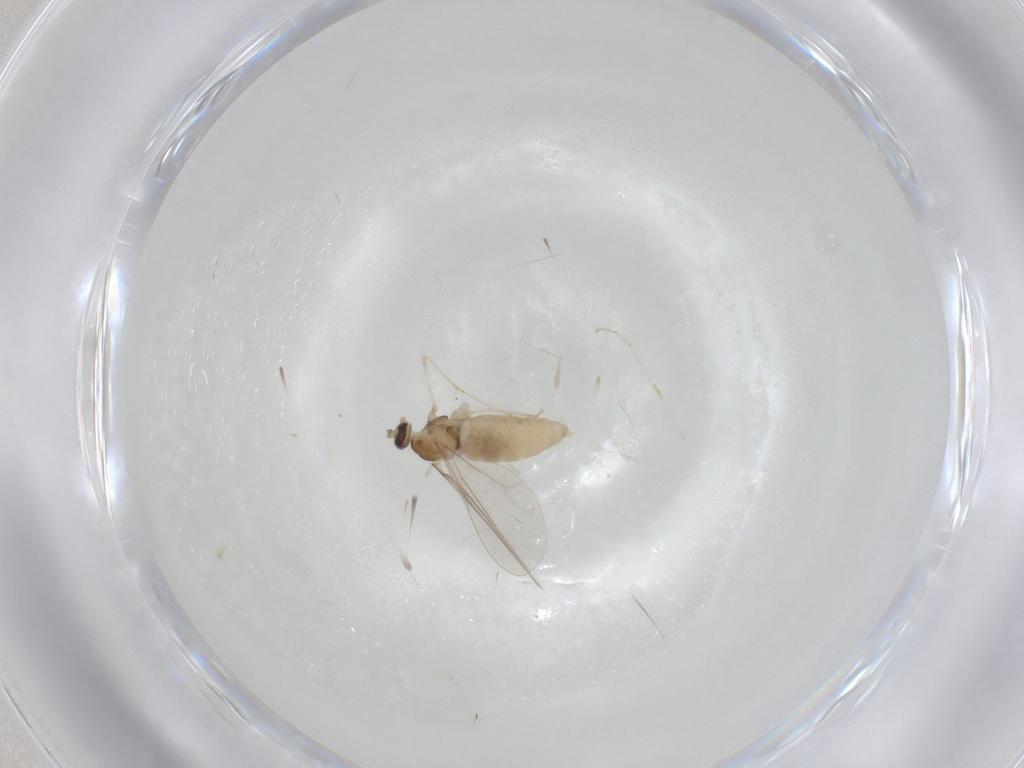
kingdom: Animalia
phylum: Arthropoda
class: Insecta
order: Diptera
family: Cecidomyiidae
